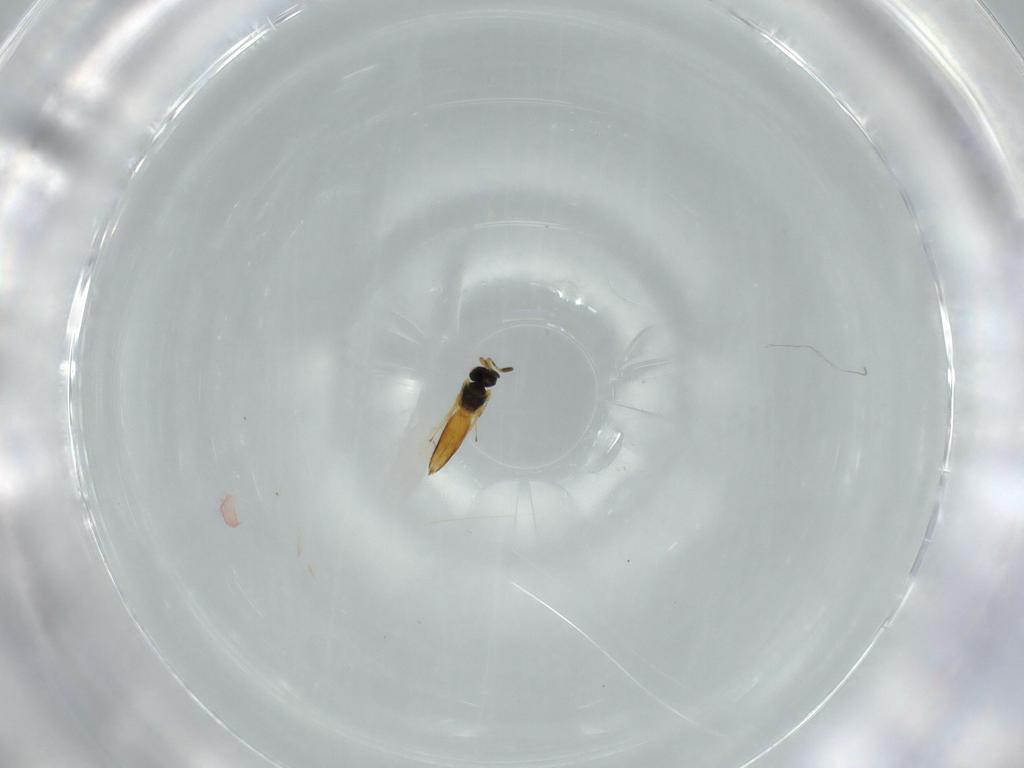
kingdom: Animalia
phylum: Arthropoda
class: Insecta
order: Hymenoptera
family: Scelionidae
